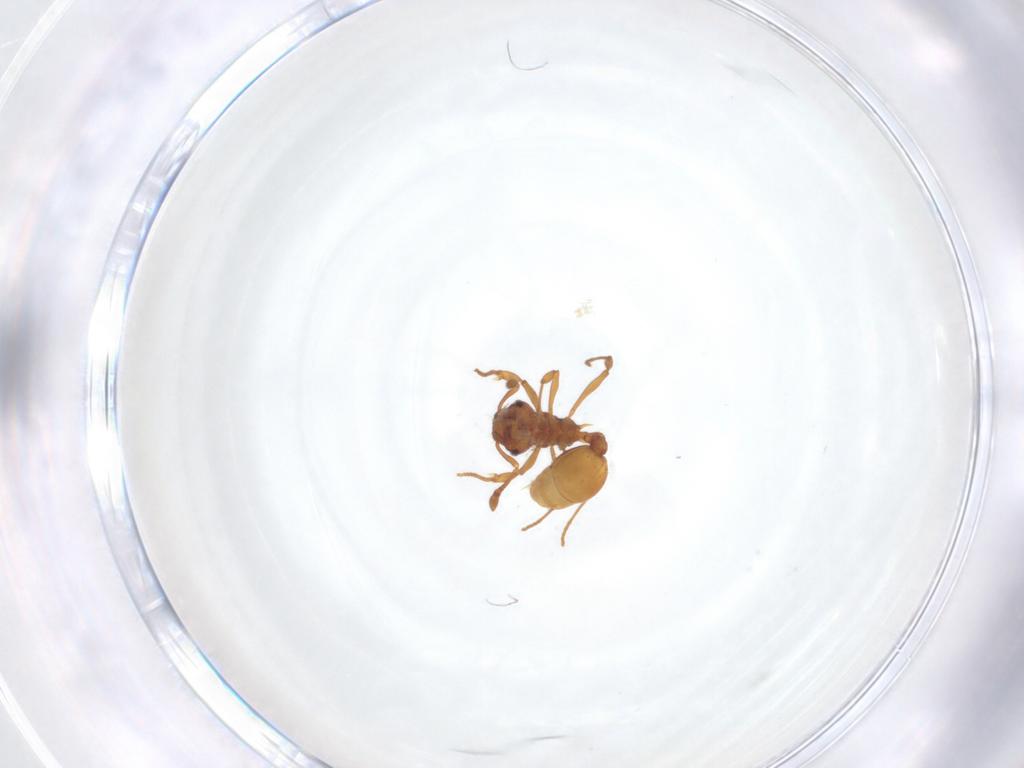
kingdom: Animalia
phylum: Arthropoda
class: Insecta
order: Hymenoptera
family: Formicidae
